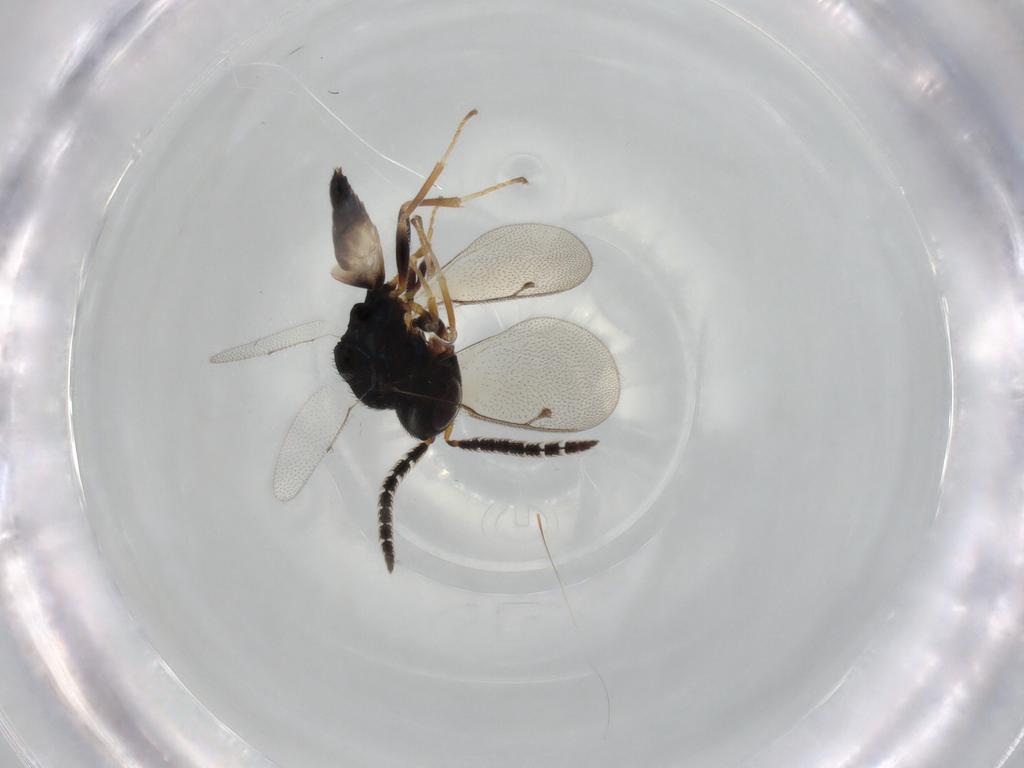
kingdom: Animalia
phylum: Arthropoda
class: Insecta
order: Hymenoptera
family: Agaonidae
